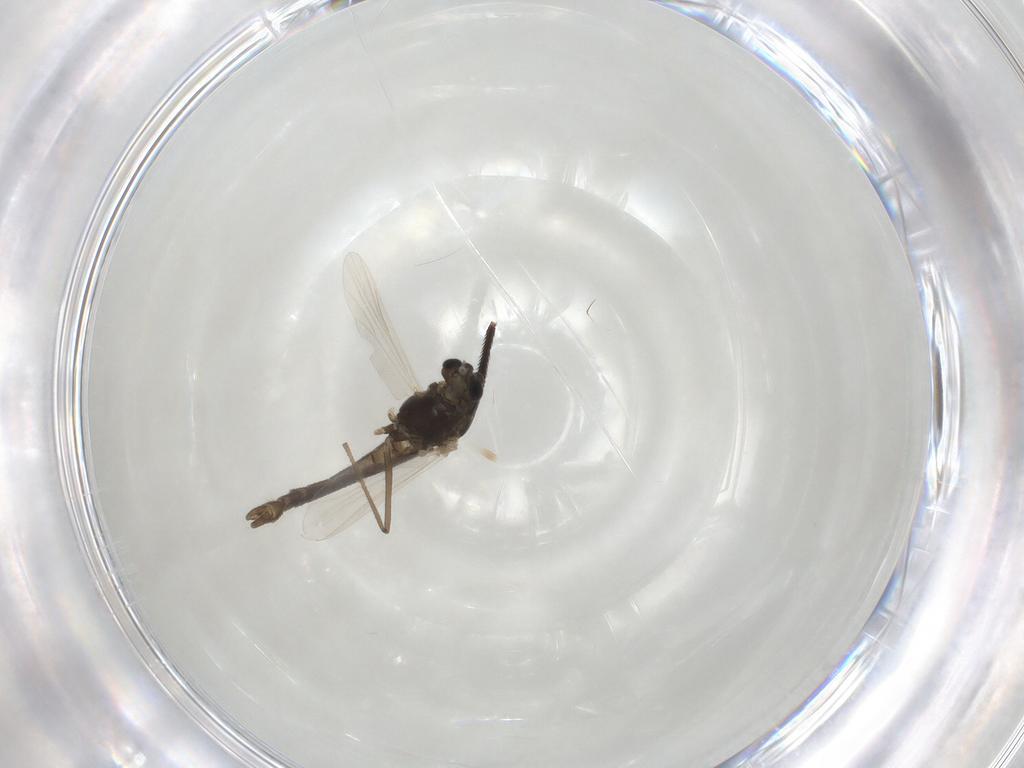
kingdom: Animalia
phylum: Arthropoda
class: Insecta
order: Diptera
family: Chironomidae
